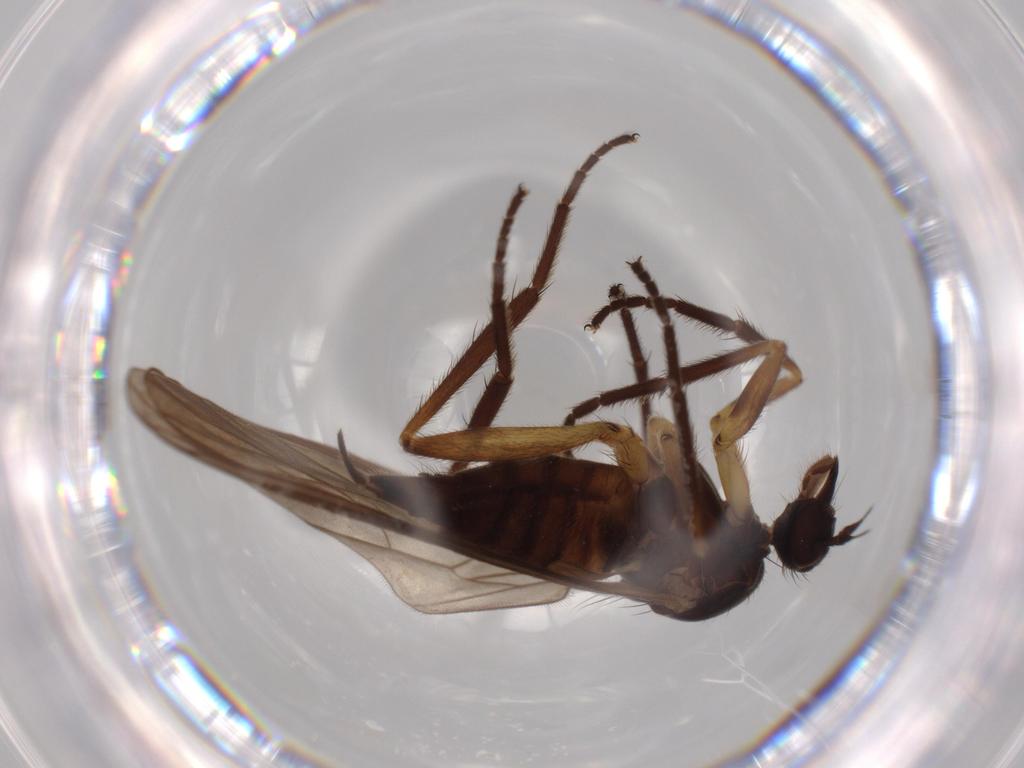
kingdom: Animalia
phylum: Arthropoda
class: Insecta
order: Diptera
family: Empididae
